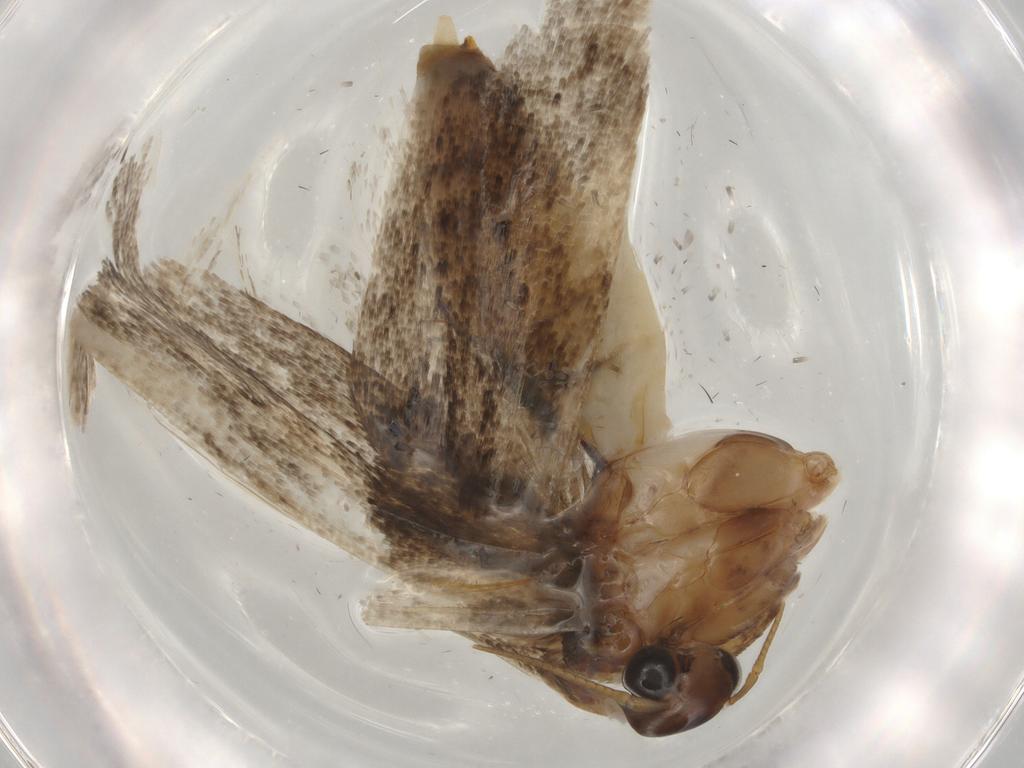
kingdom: Animalia
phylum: Arthropoda
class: Insecta
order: Lepidoptera
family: Gelechiidae
